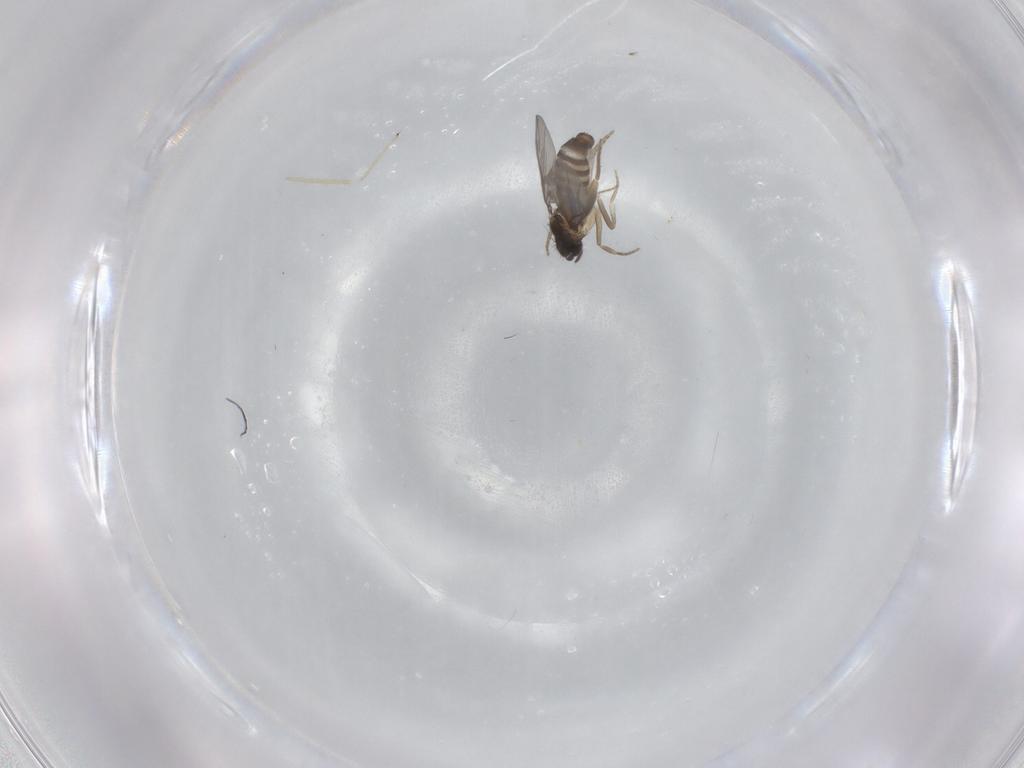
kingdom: Animalia
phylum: Arthropoda
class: Insecta
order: Diptera
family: Chironomidae
